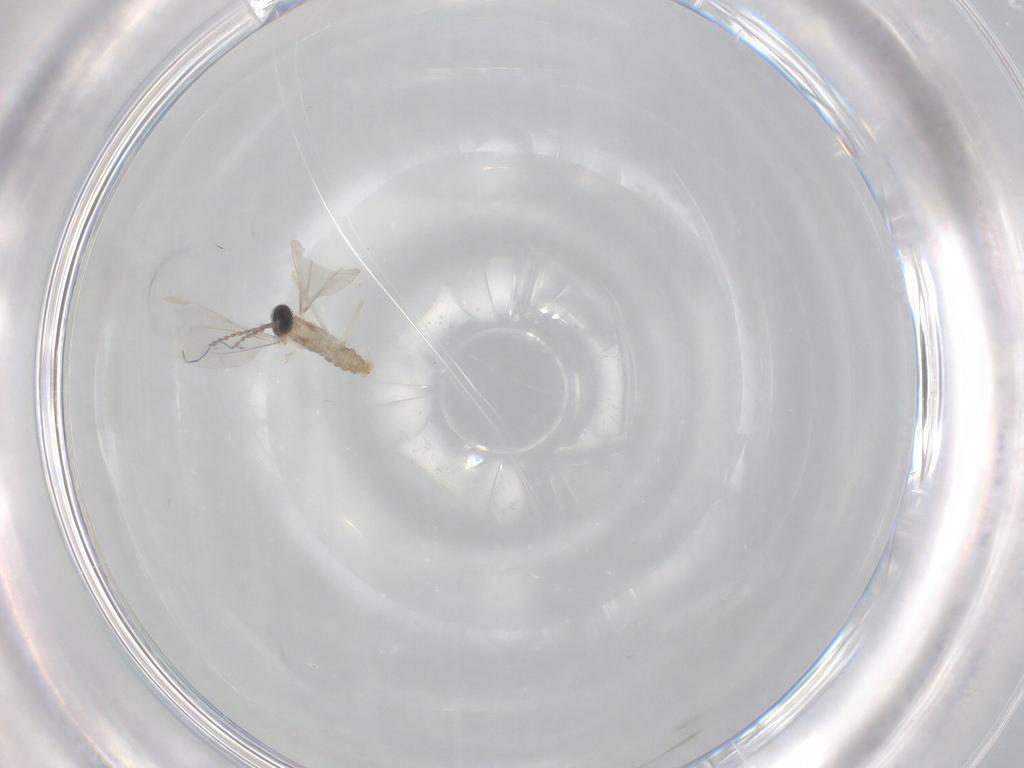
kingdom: Animalia
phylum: Arthropoda
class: Insecta
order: Diptera
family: Cecidomyiidae
